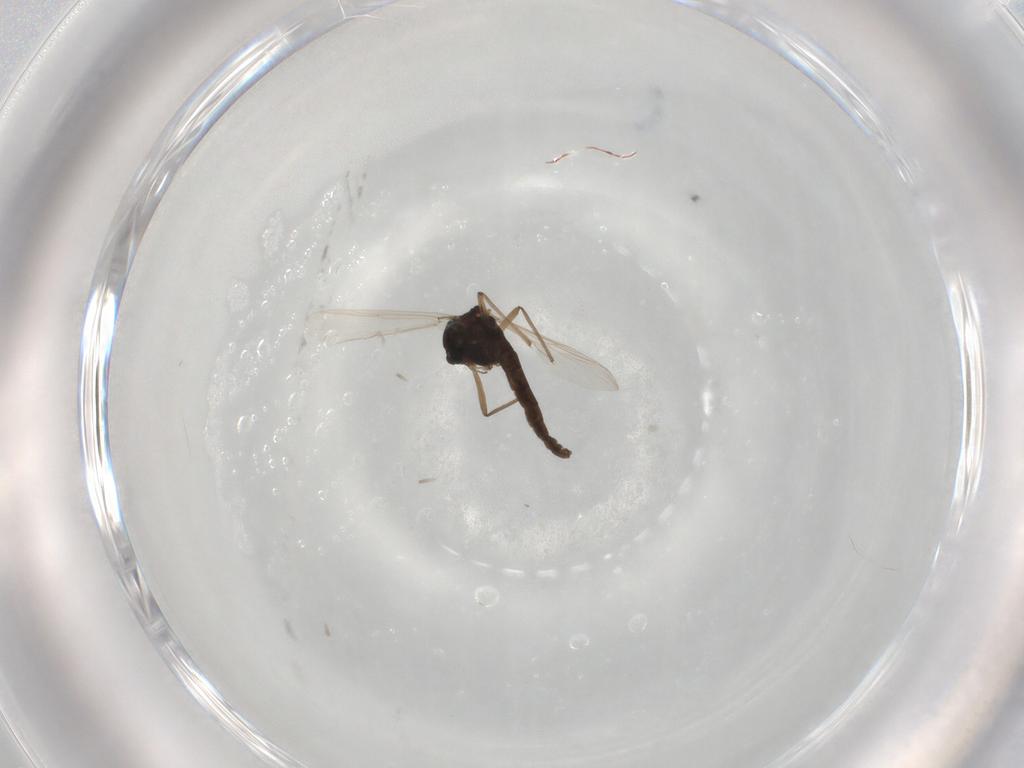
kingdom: Animalia
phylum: Arthropoda
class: Insecta
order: Diptera
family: Chironomidae
